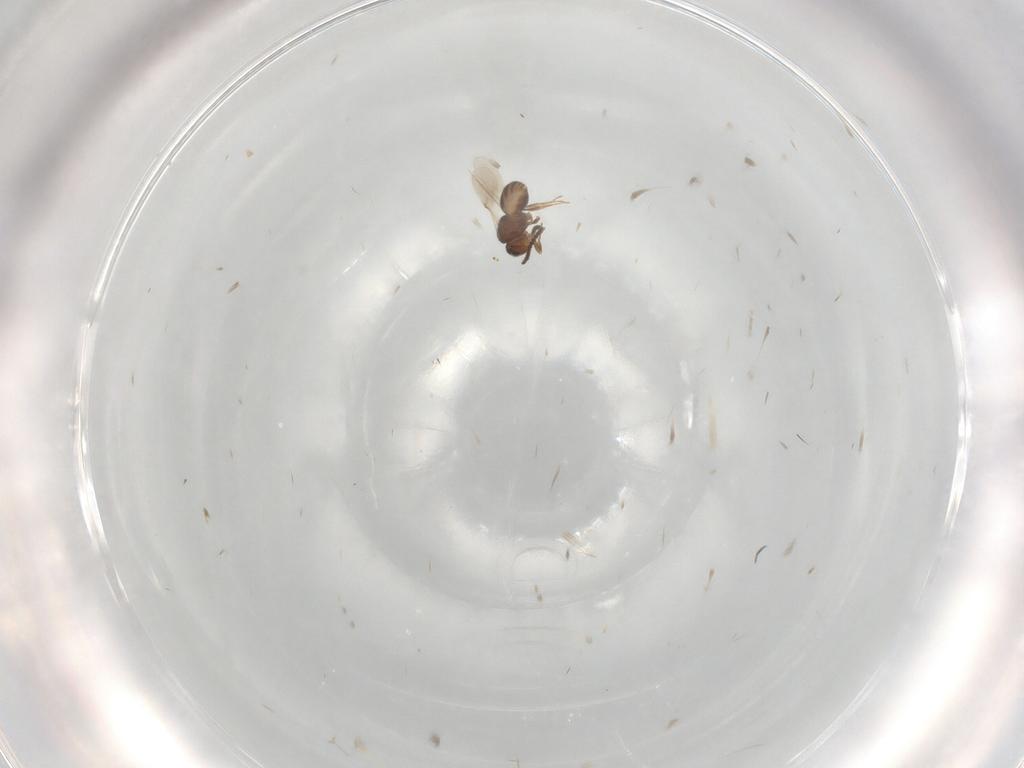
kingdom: Animalia
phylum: Arthropoda
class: Insecta
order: Hymenoptera
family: Scelionidae
